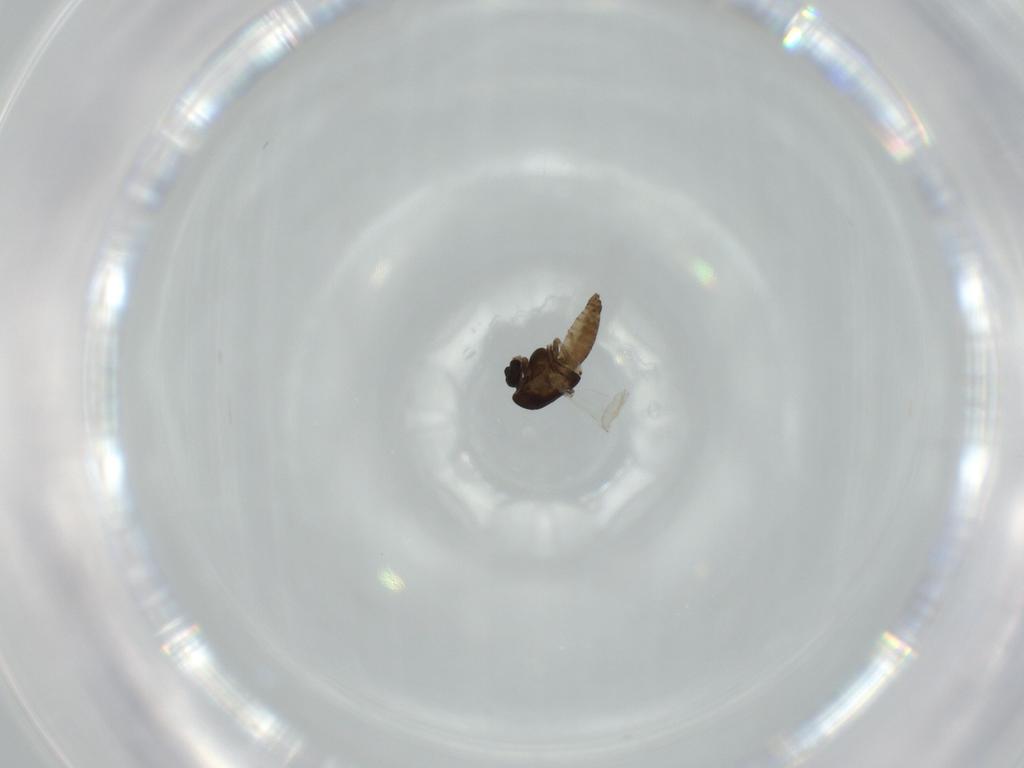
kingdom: Animalia
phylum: Arthropoda
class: Insecta
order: Diptera
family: Chironomidae
